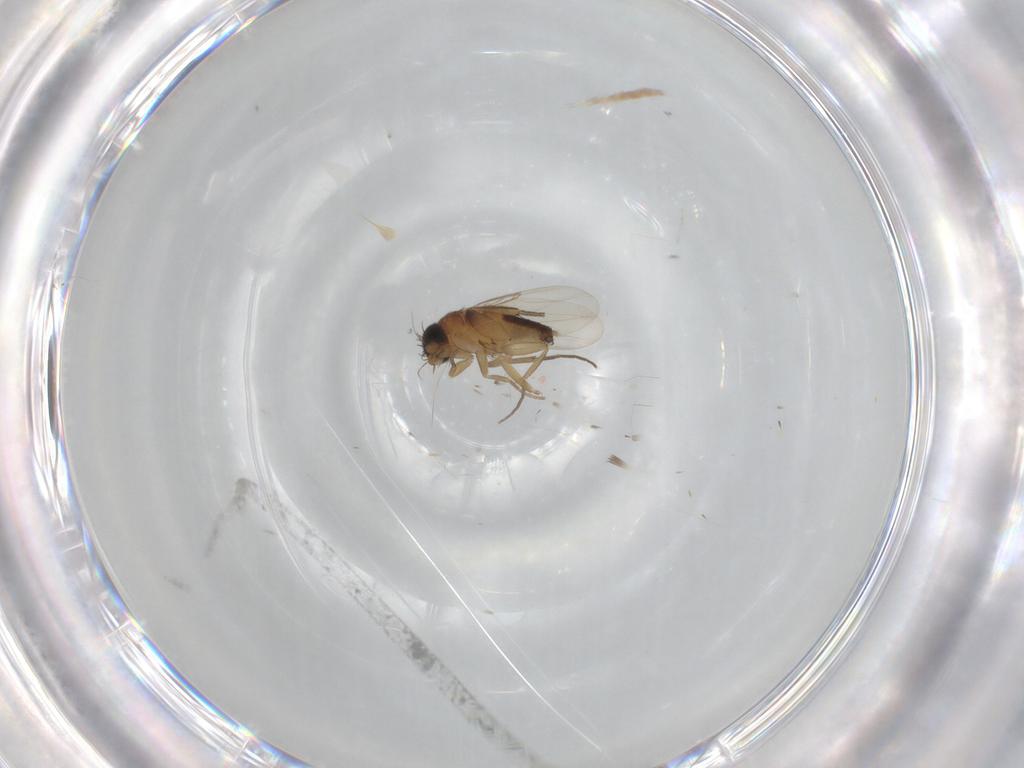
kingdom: Animalia
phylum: Arthropoda
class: Insecta
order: Diptera
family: Phoridae
